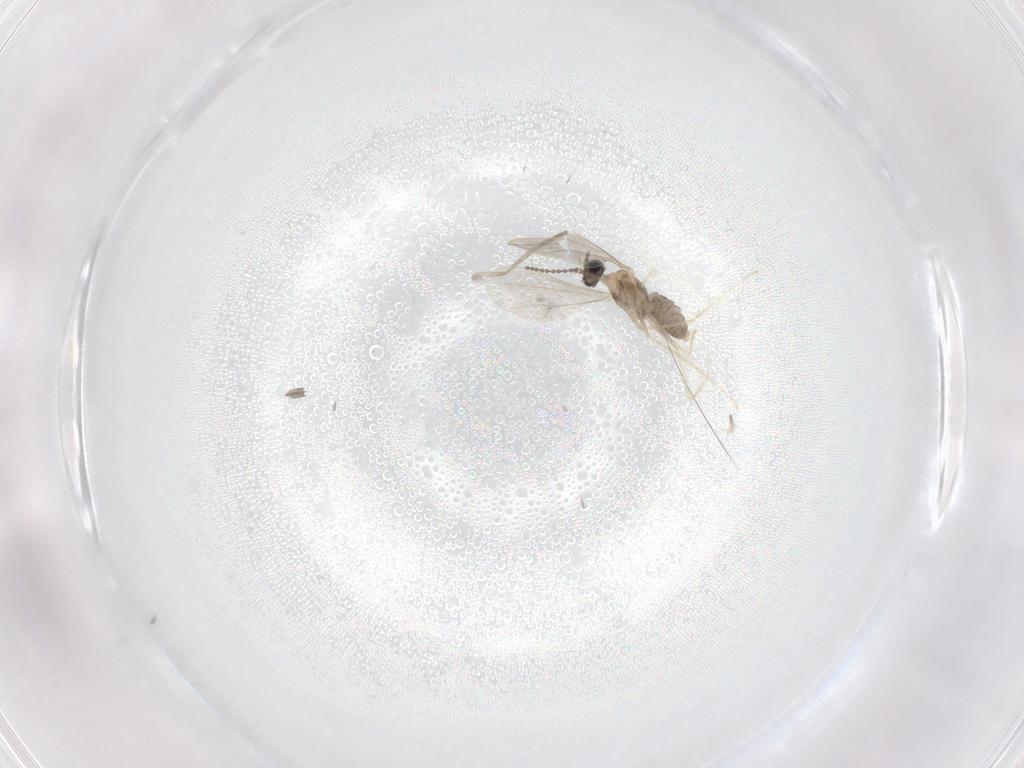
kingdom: Animalia
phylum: Arthropoda
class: Insecta
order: Diptera
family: Cecidomyiidae
